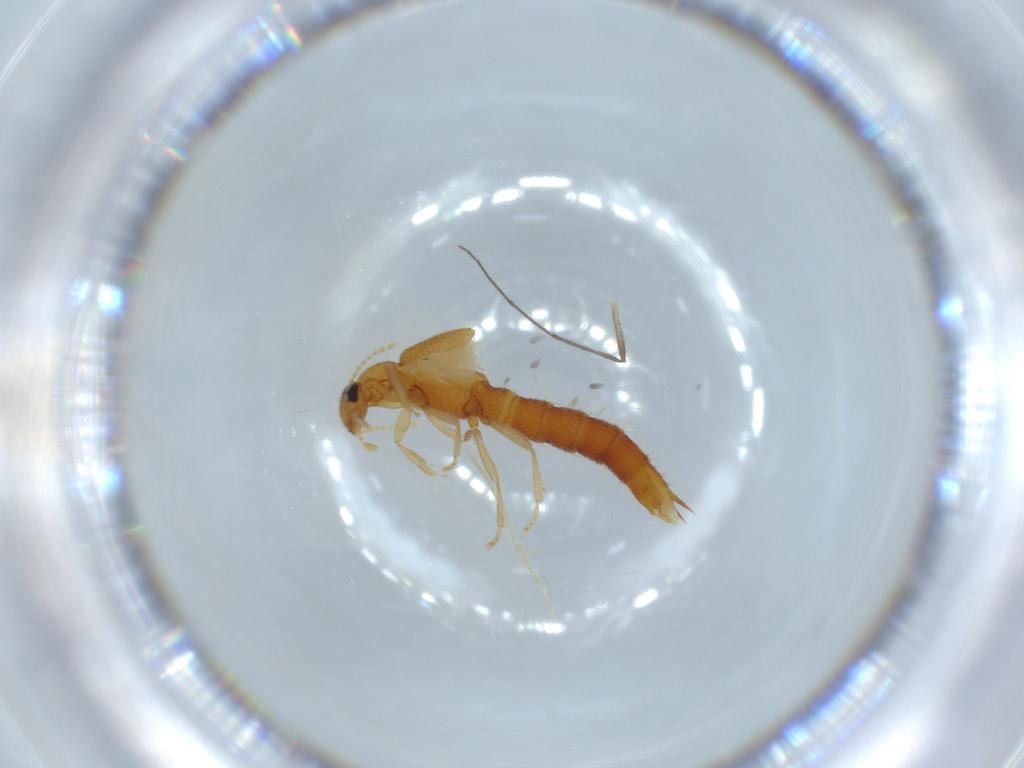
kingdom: Animalia
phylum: Arthropoda
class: Insecta
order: Coleoptera
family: Staphylinidae
